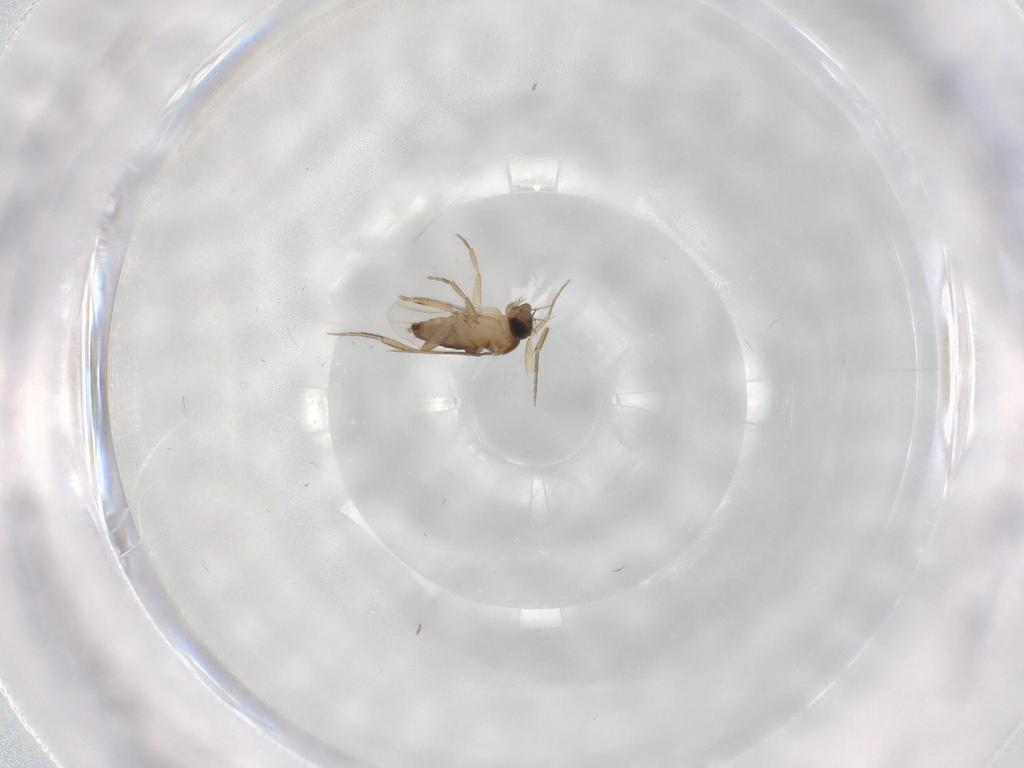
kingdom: Animalia
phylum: Arthropoda
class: Insecta
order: Diptera
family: Phoridae
